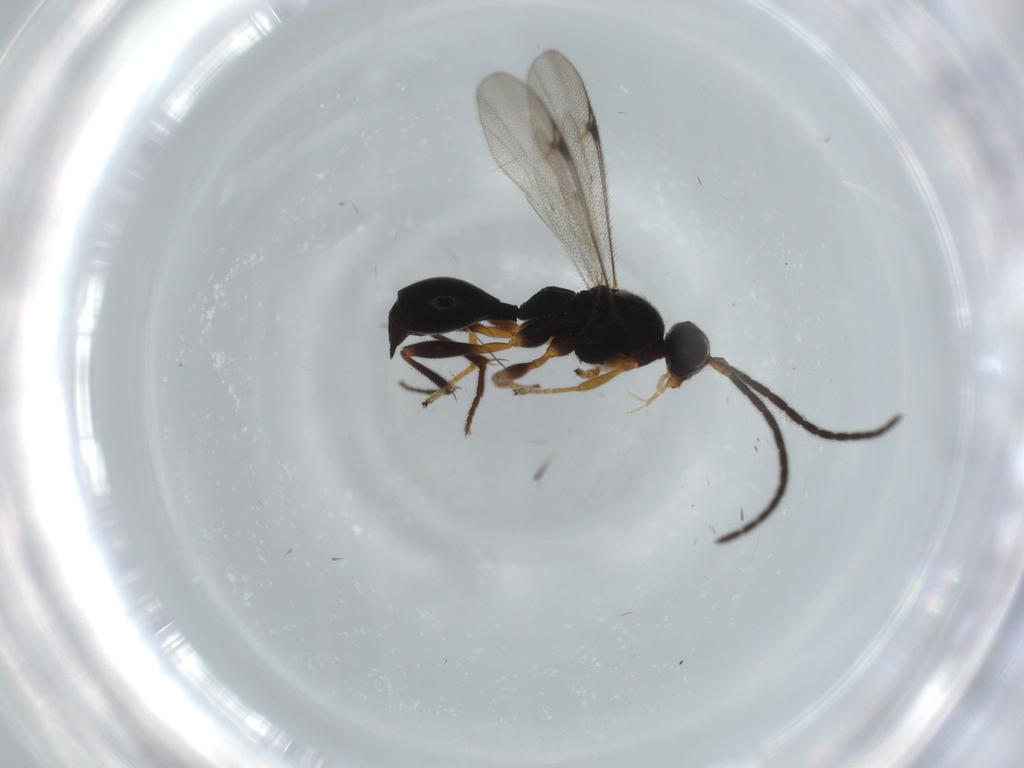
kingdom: Animalia
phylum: Arthropoda
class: Insecta
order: Hymenoptera
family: Proctotrupidae
